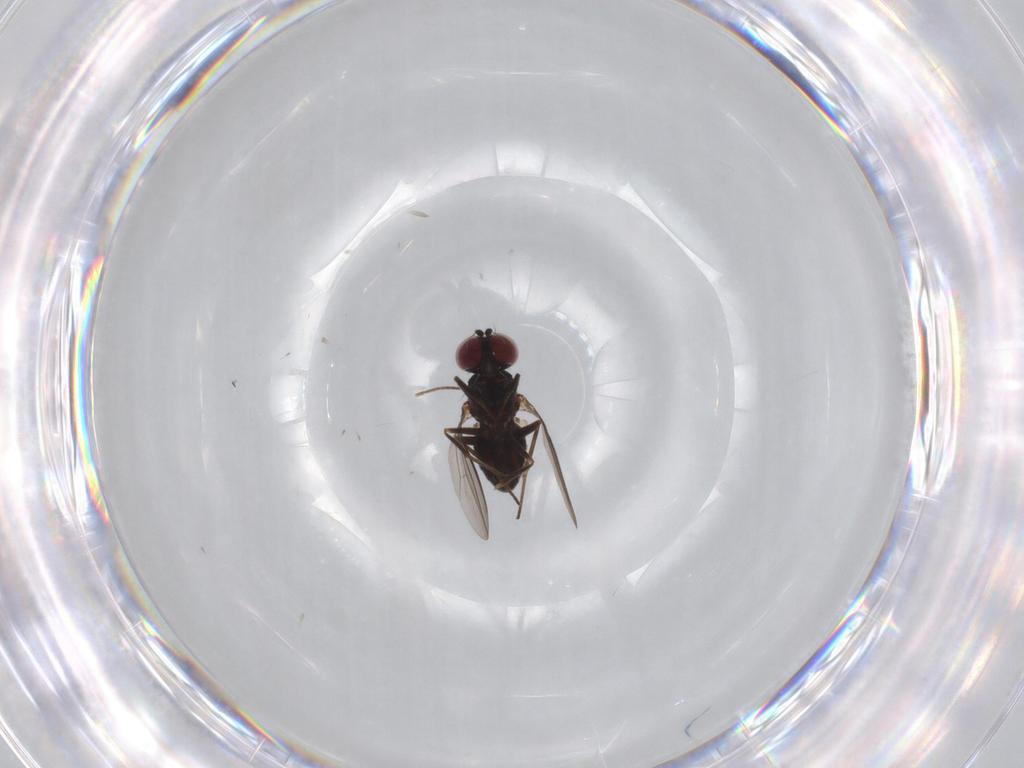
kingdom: Animalia
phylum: Arthropoda
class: Insecta
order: Diptera
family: Dolichopodidae
